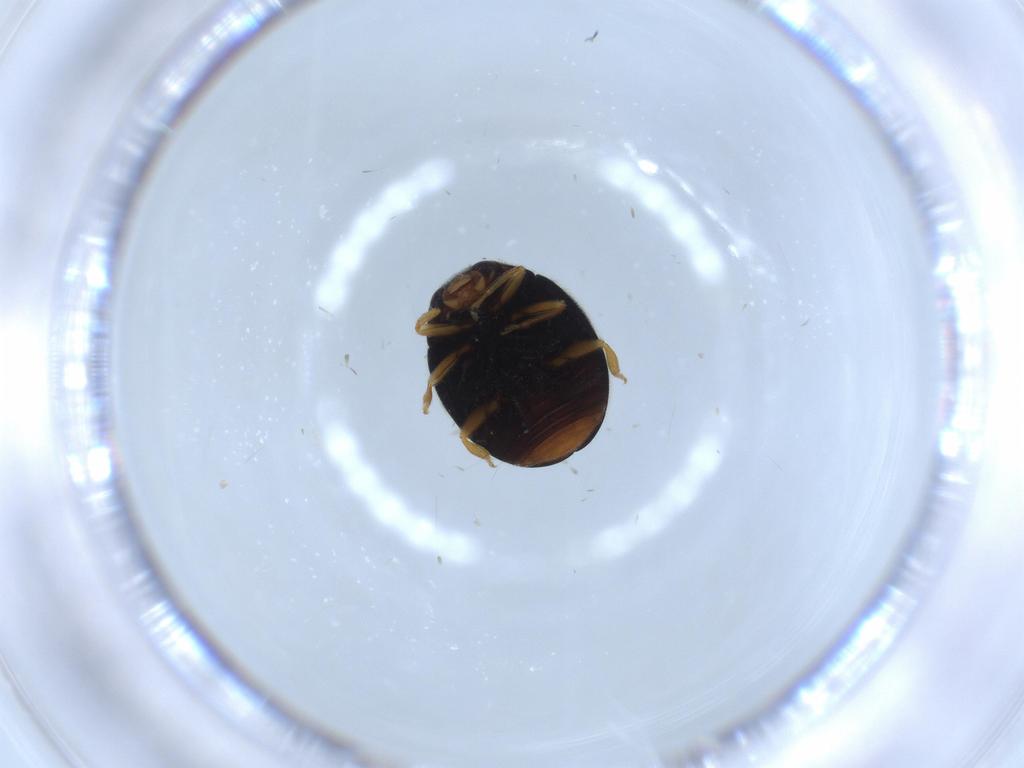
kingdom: Animalia
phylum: Arthropoda
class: Insecta
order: Coleoptera
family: Coccinellidae
